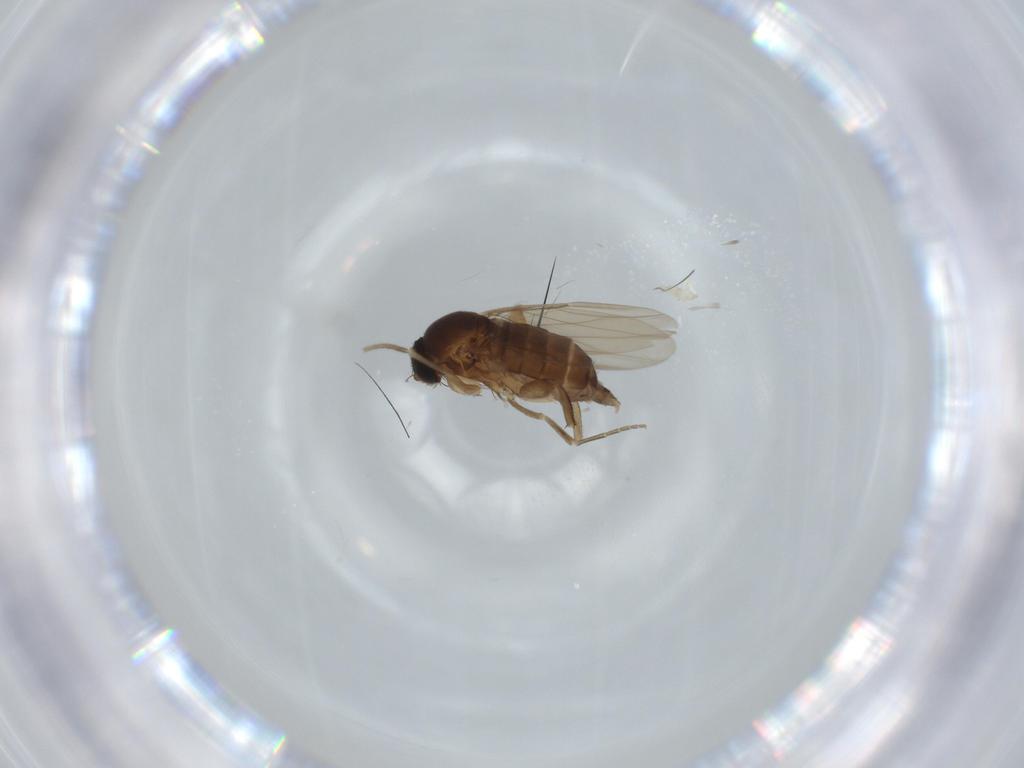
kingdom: Animalia
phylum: Arthropoda
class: Insecta
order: Diptera
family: Phoridae
